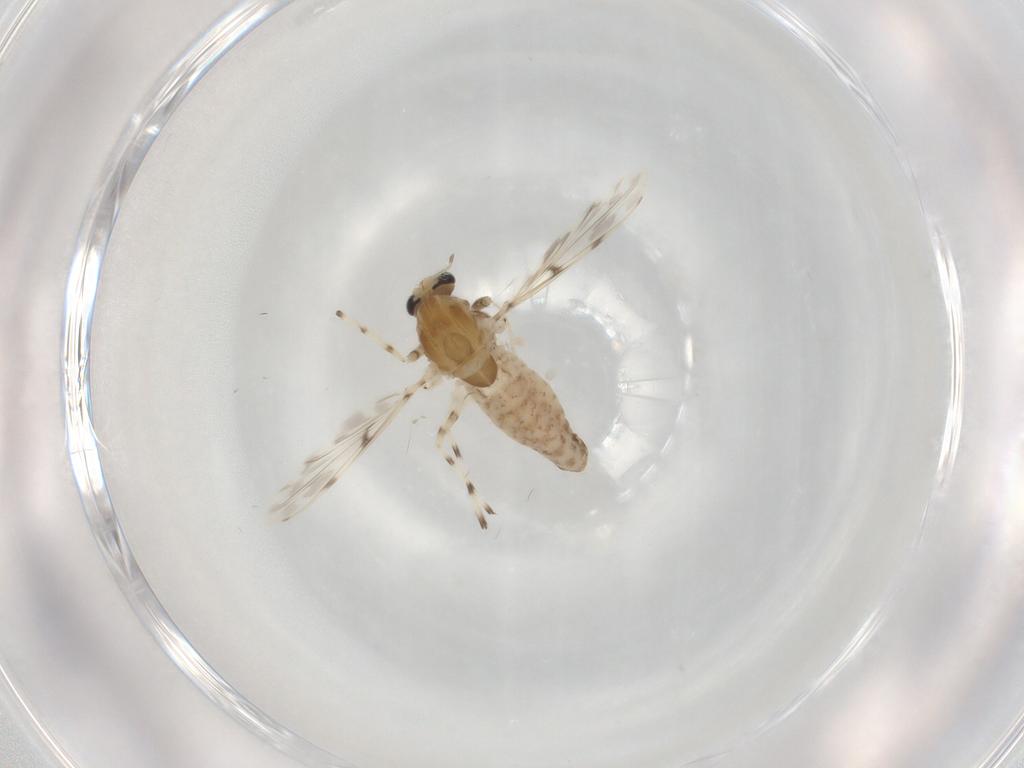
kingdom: Animalia
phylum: Arthropoda
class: Insecta
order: Diptera
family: Chironomidae
